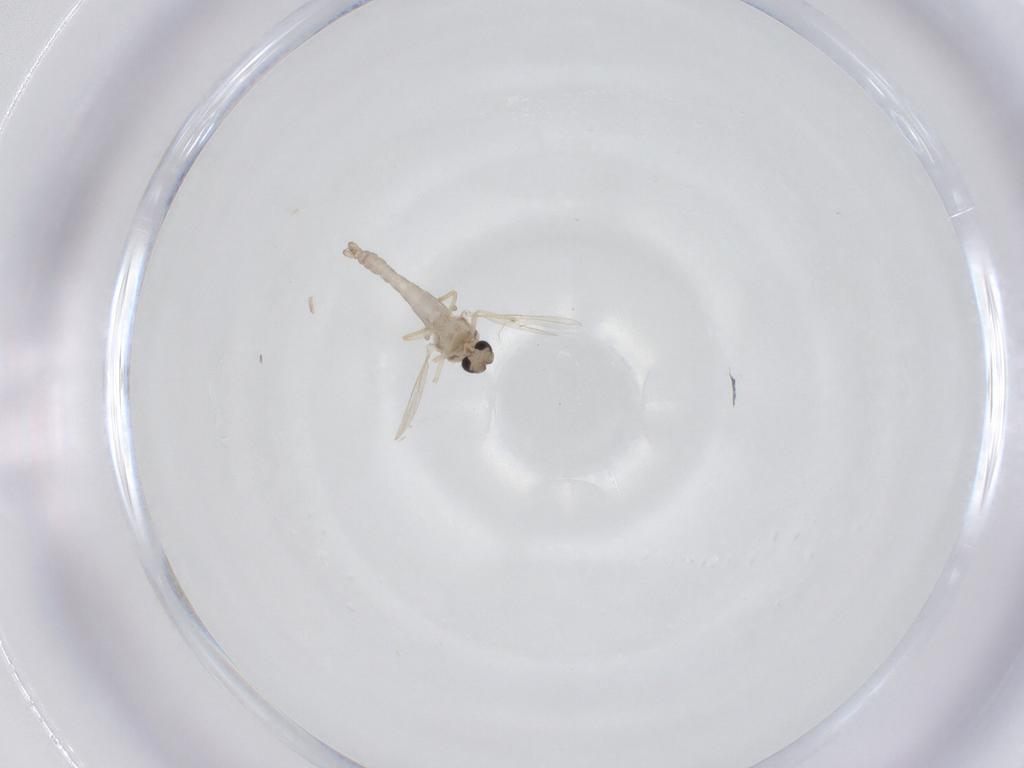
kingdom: Animalia
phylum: Arthropoda
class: Insecta
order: Diptera
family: Ceratopogonidae
